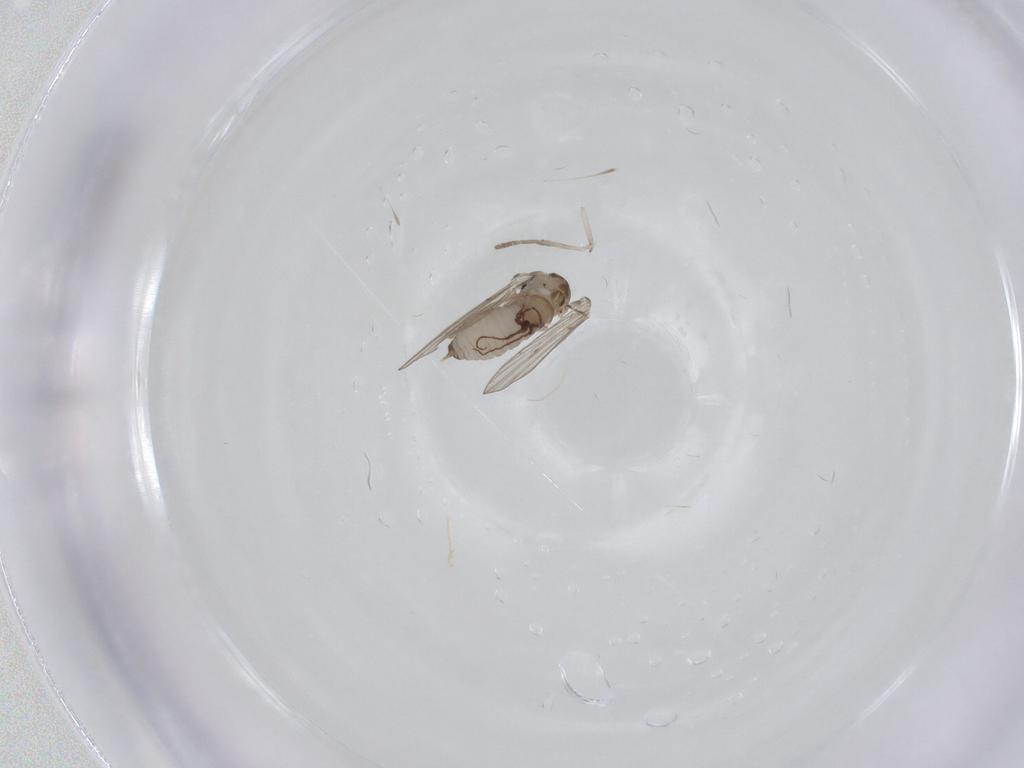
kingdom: Animalia
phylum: Arthropoda
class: Insecta
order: Diptera
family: Psychodidae
